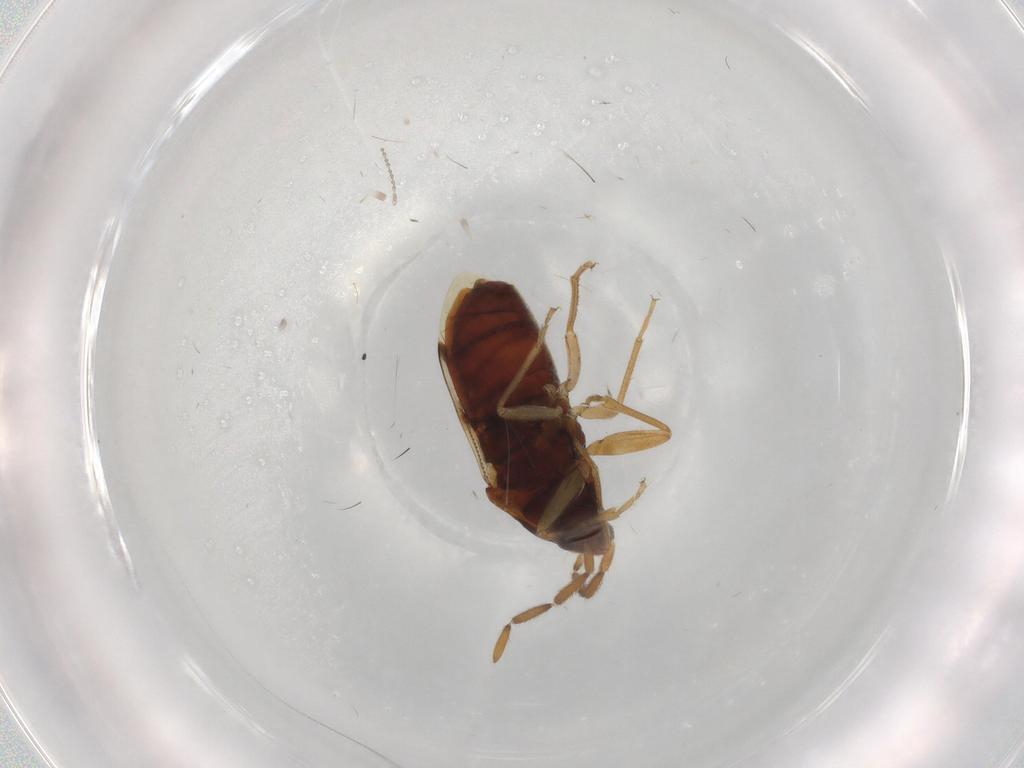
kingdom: Animalia
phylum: Arthropoda
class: Insecta
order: Hemiptera
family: Rhyparochromidae
